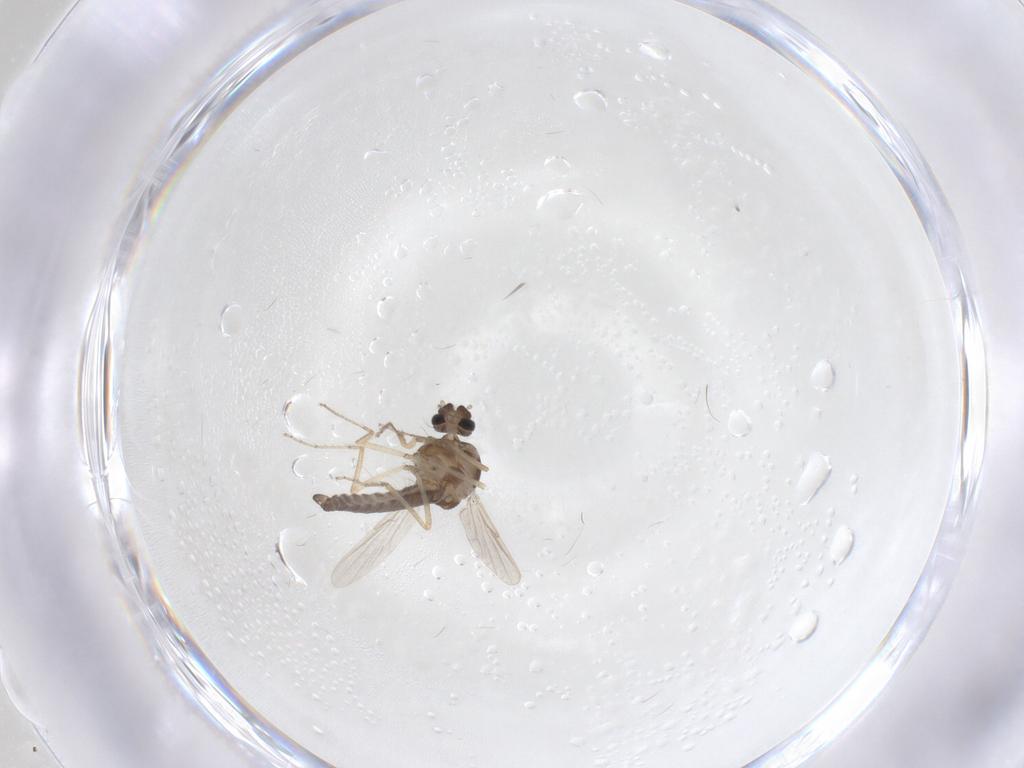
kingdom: Animalia
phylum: Arthropoda
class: Insecta
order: Diptera
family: Ceratopogonidae
